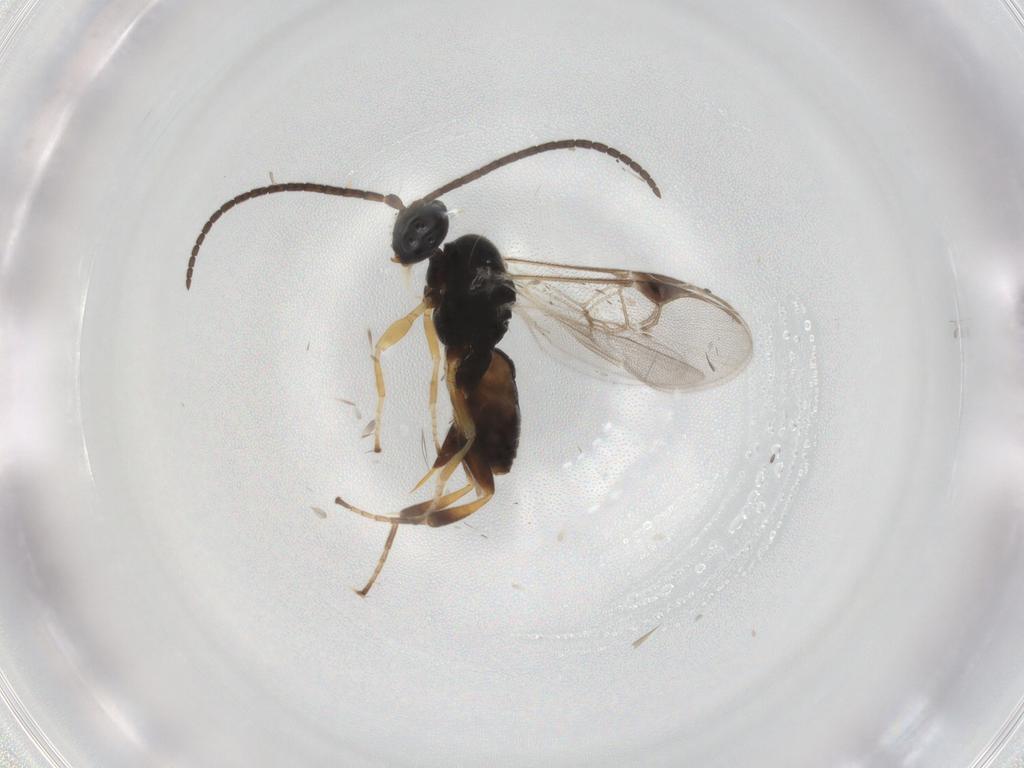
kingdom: Animalia
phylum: Arthropoda
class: Insecta
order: Hymenoptera
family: Braconidae
